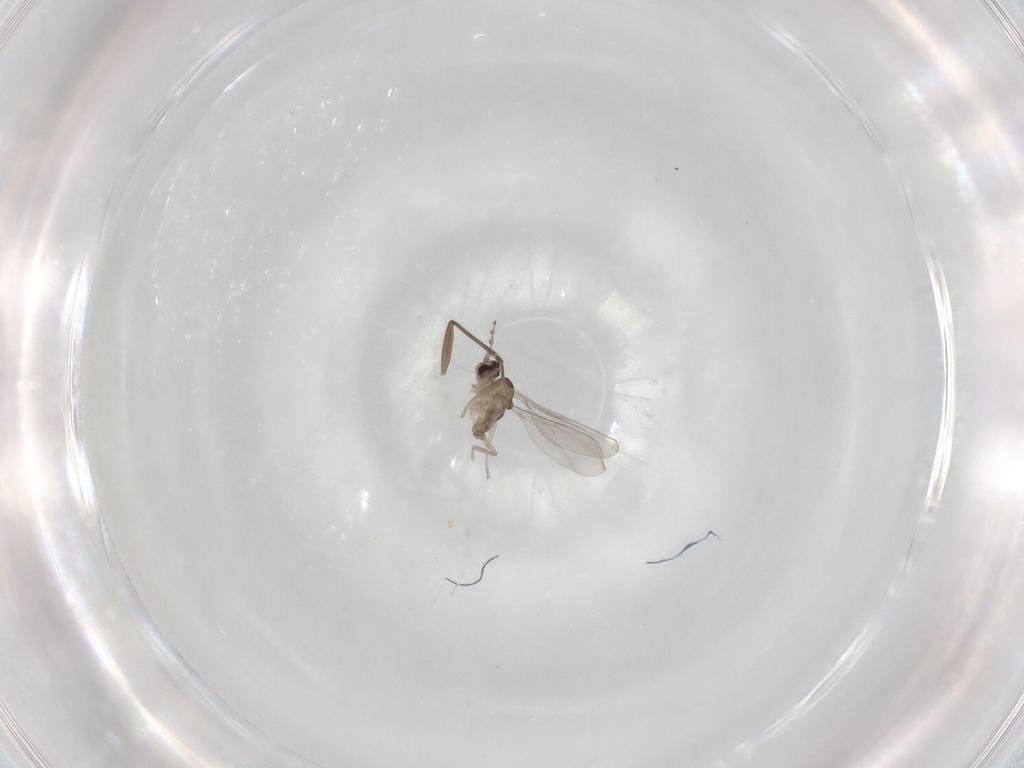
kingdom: Animalia
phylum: Arthropoda
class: Insecta
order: Diptera
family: Cecidomyiidae
